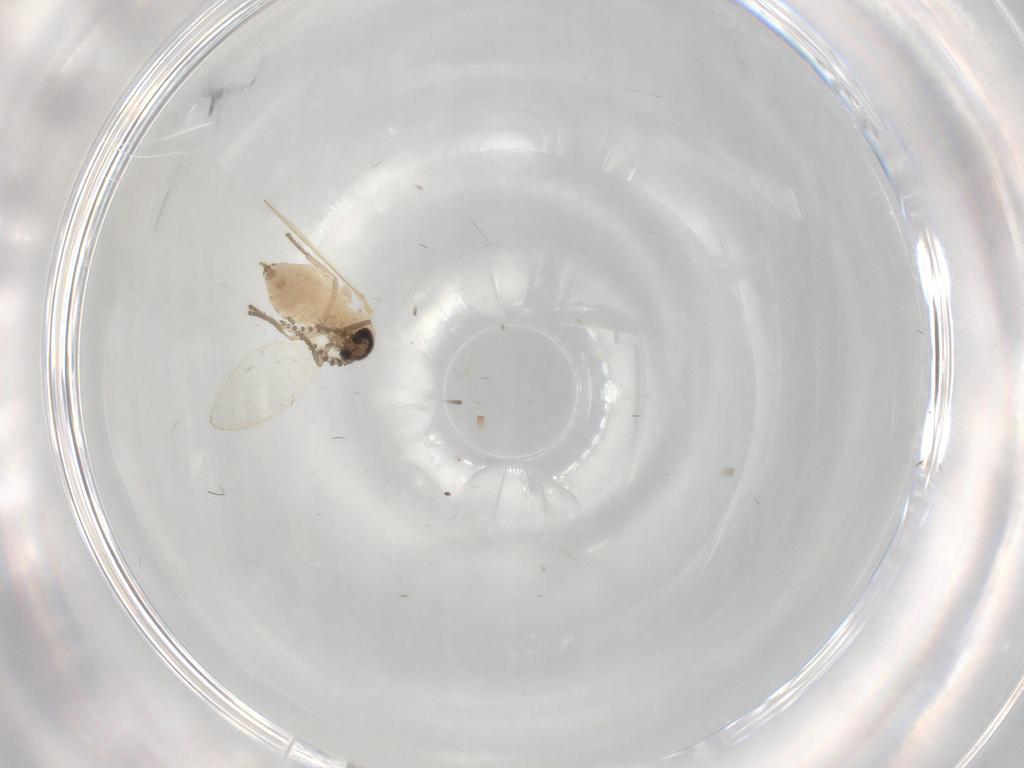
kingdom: Animalia
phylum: Arthropoda
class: Insecta
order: Diptera
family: Psychodidae
